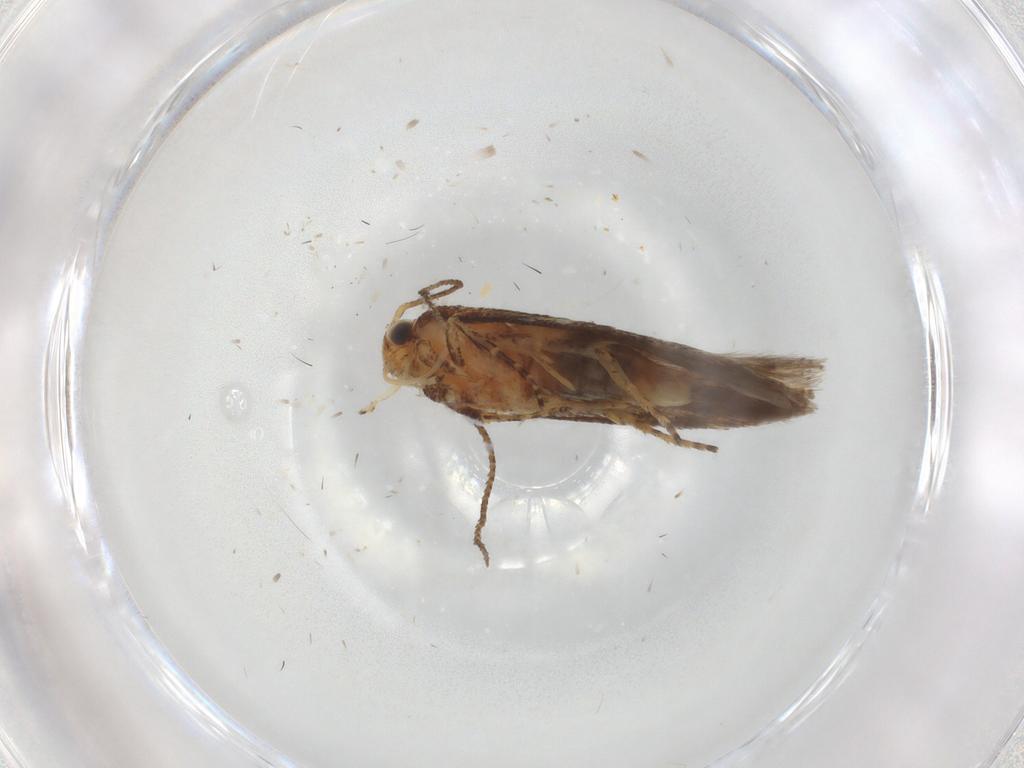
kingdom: Animalia
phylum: Arthropoda
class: Insecta
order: Lepidoptera
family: Gelechiidae
